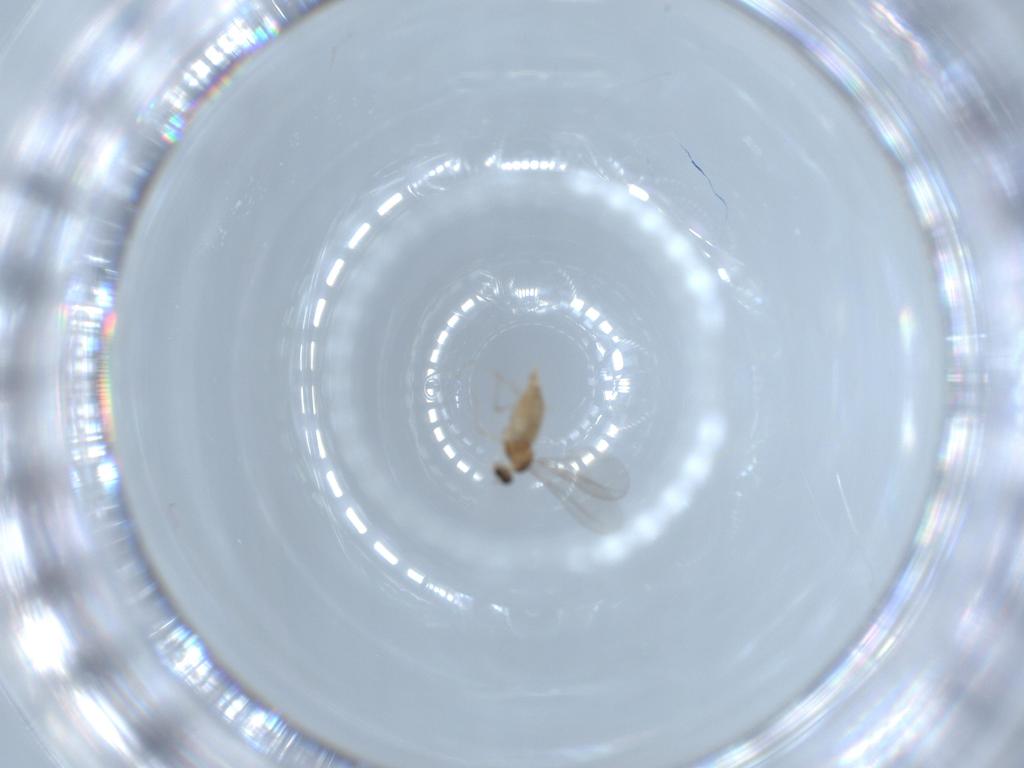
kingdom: Animalia
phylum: Arthropoda
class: Insecta
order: Diptera
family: Cecidomyiidae
